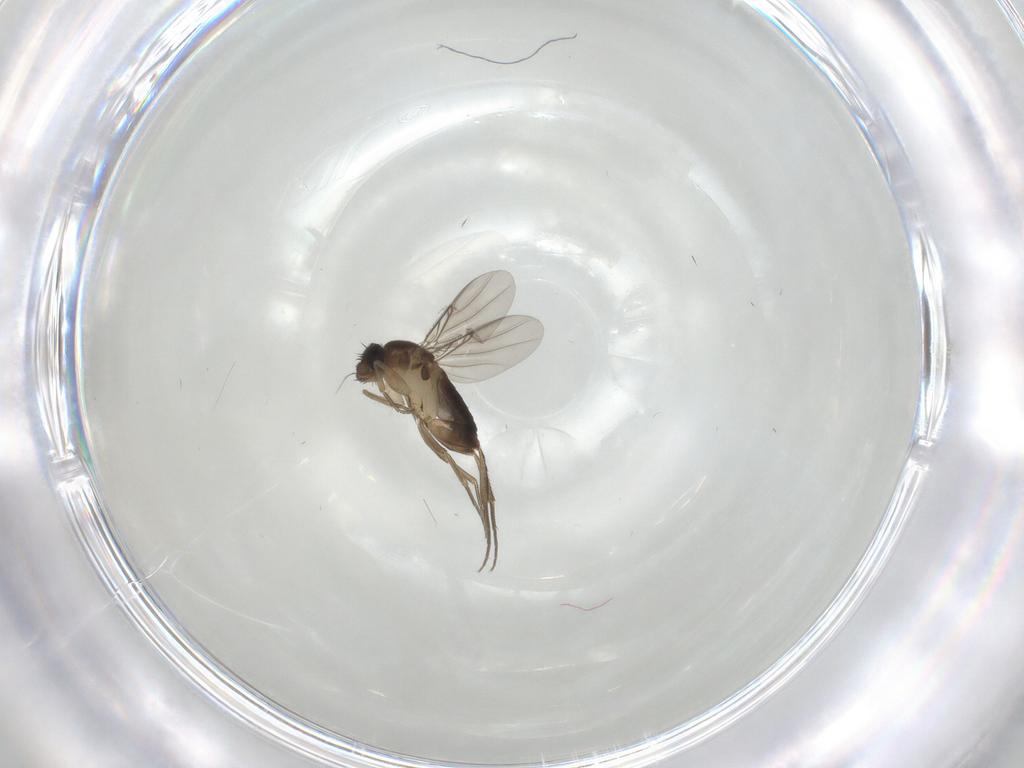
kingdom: Animalia
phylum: Arthropoda
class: Insecta
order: Diptera
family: Phoridae
